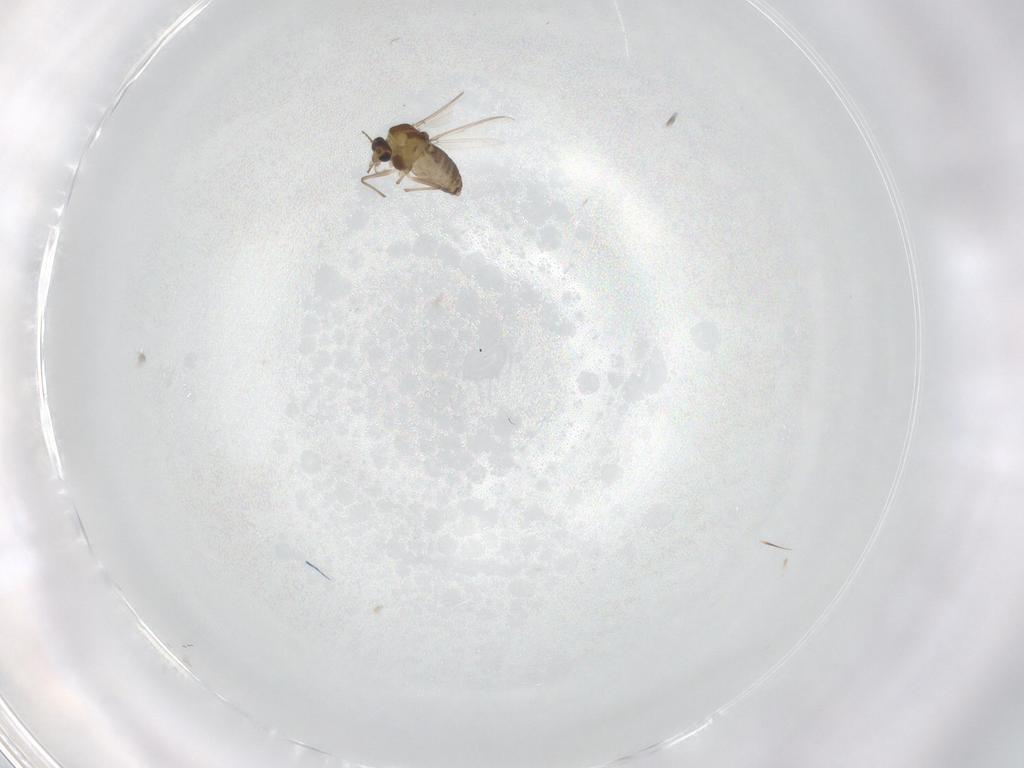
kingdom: Animalia
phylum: Arthropoda
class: Insecta
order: Diptera
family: Chironomidae
